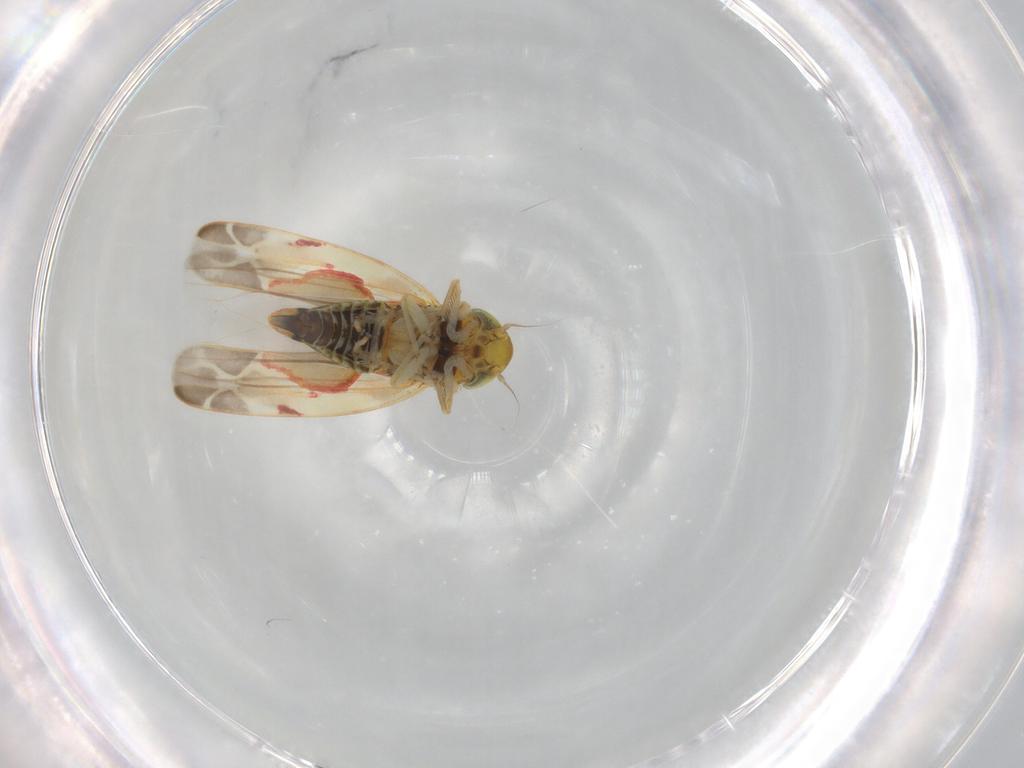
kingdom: Animalia
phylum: Arthropoda
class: Insecta
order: Hemiptera
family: Cicadellidae
